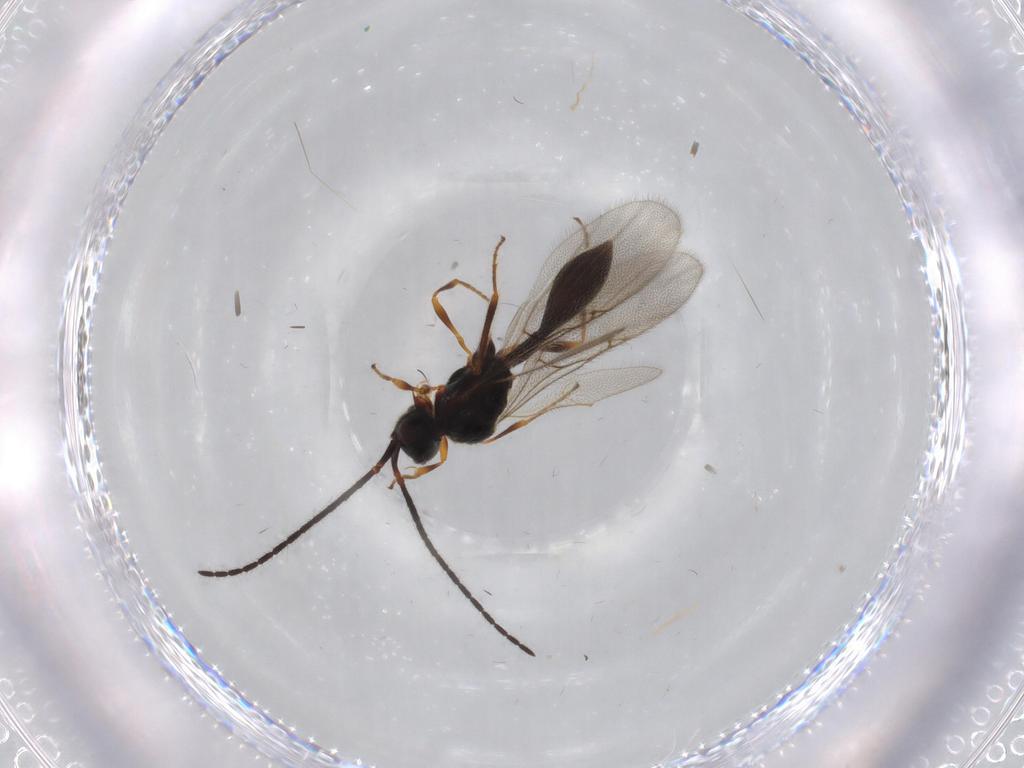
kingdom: Animalia
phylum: Arthropoda
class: Insecta
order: Hymenoptera
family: Diapriidae
